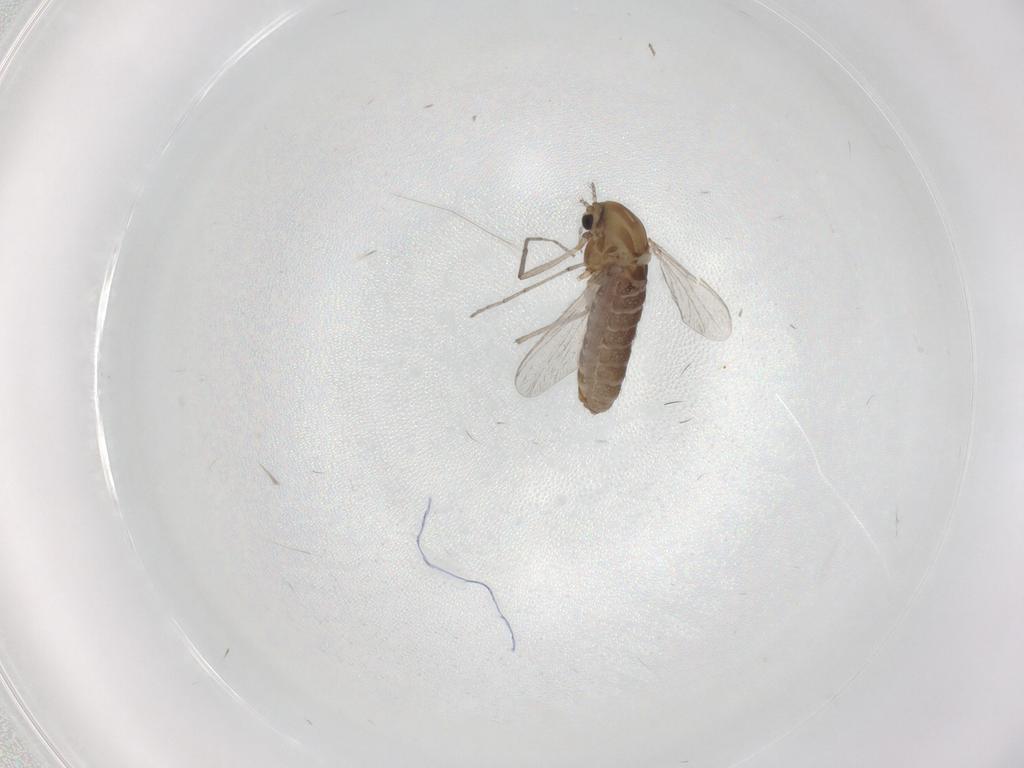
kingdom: Animalia
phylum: Arthropoda
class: Insecta
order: Diptera
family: Chironomidae
